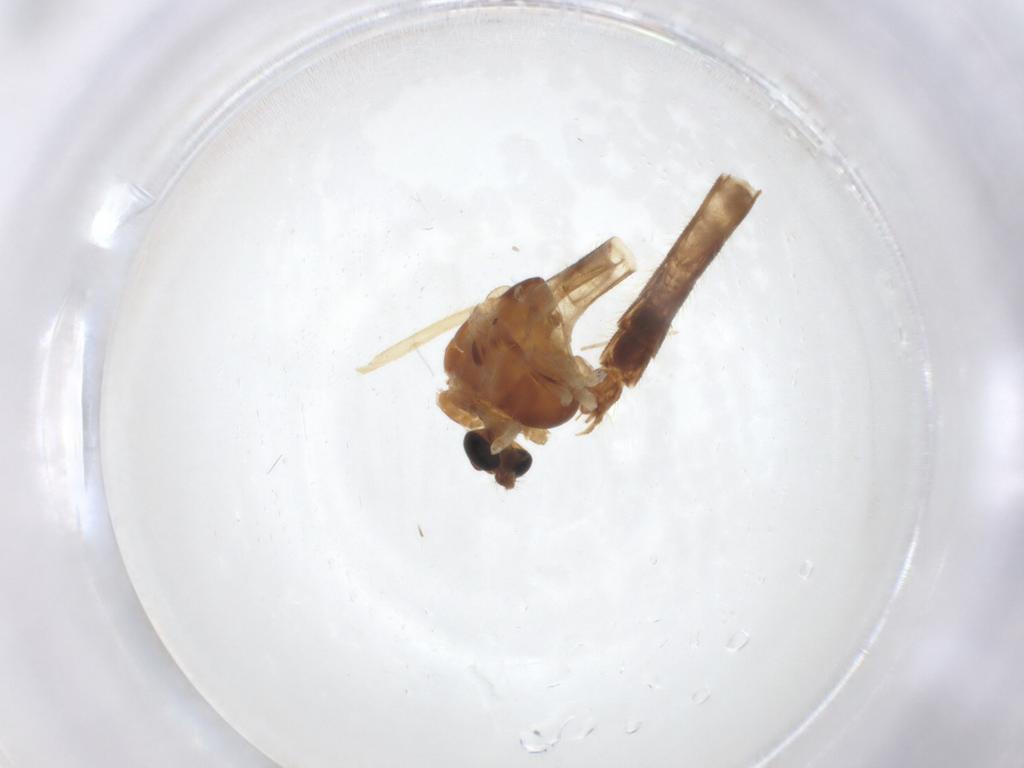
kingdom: Animalia
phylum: Arthropoda
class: Insecta
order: Diptera
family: Chironomidae
